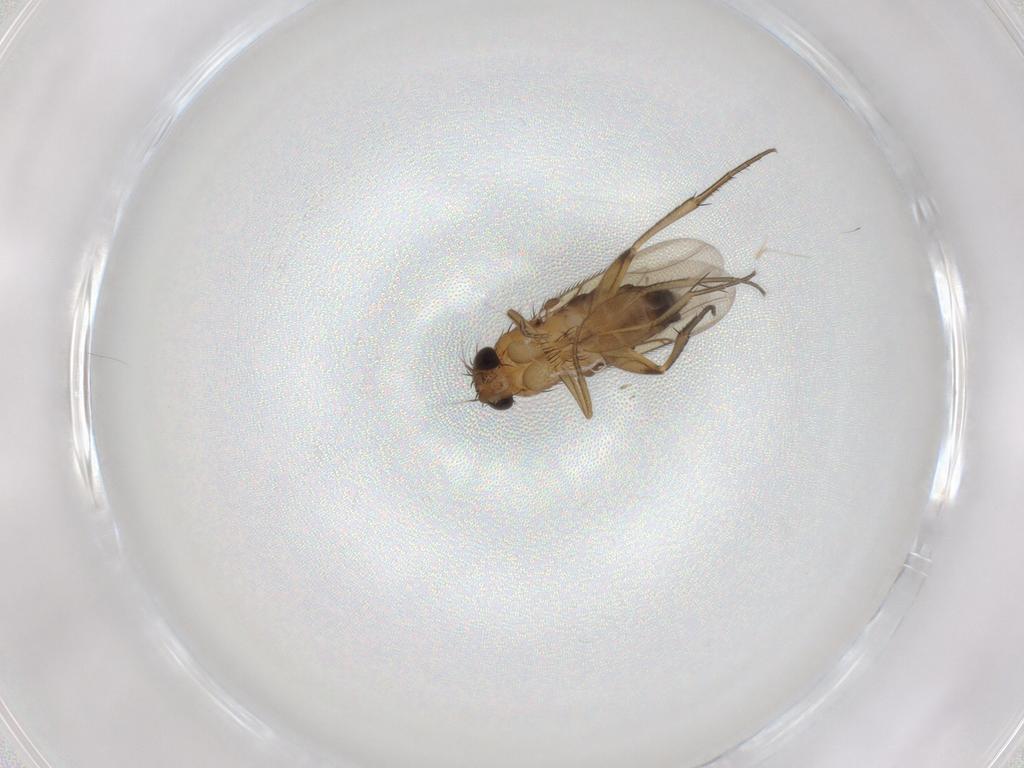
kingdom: Animalia
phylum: Arthropoda
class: Insecta
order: Diptera
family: Phoridae
